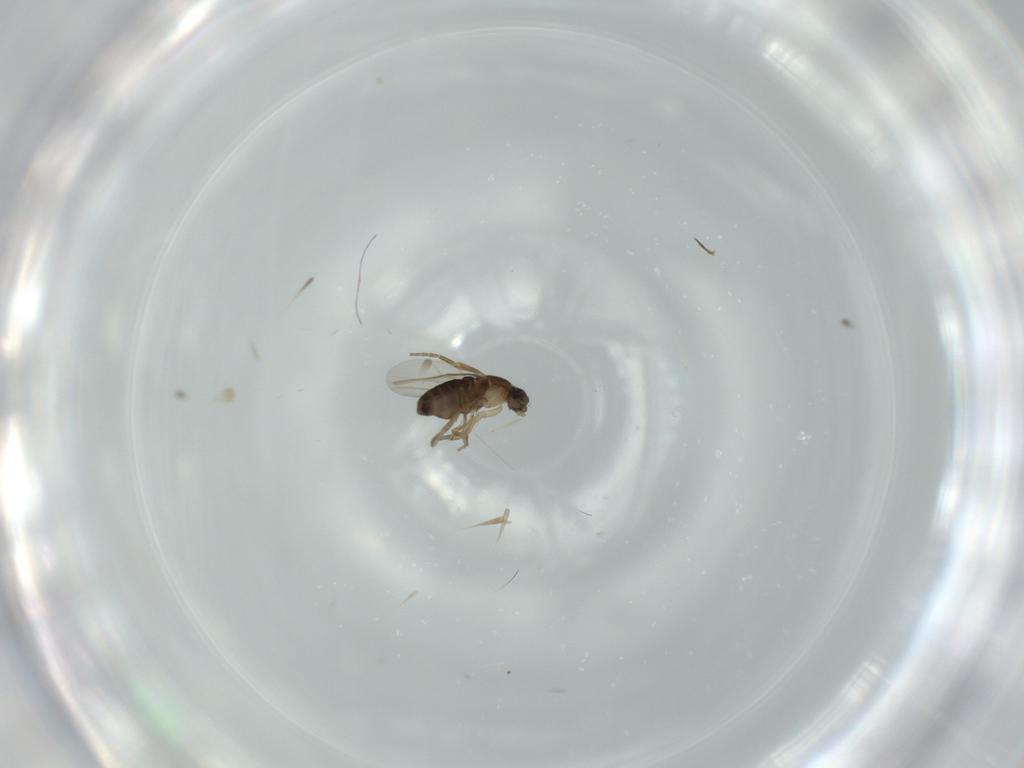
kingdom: Animalia
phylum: Arthropoda
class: Insecta
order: Diptera
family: Phoridae
